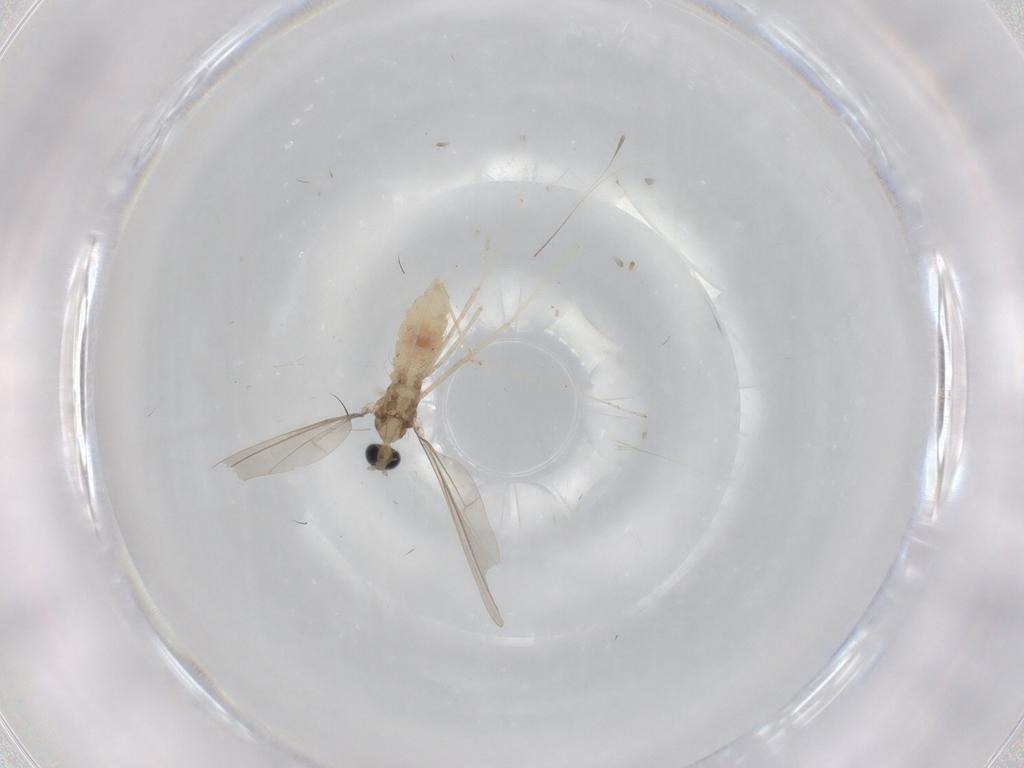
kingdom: Animalia
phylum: Arthropoda
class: Insecta
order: Diptera
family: Cecidomyiidae
